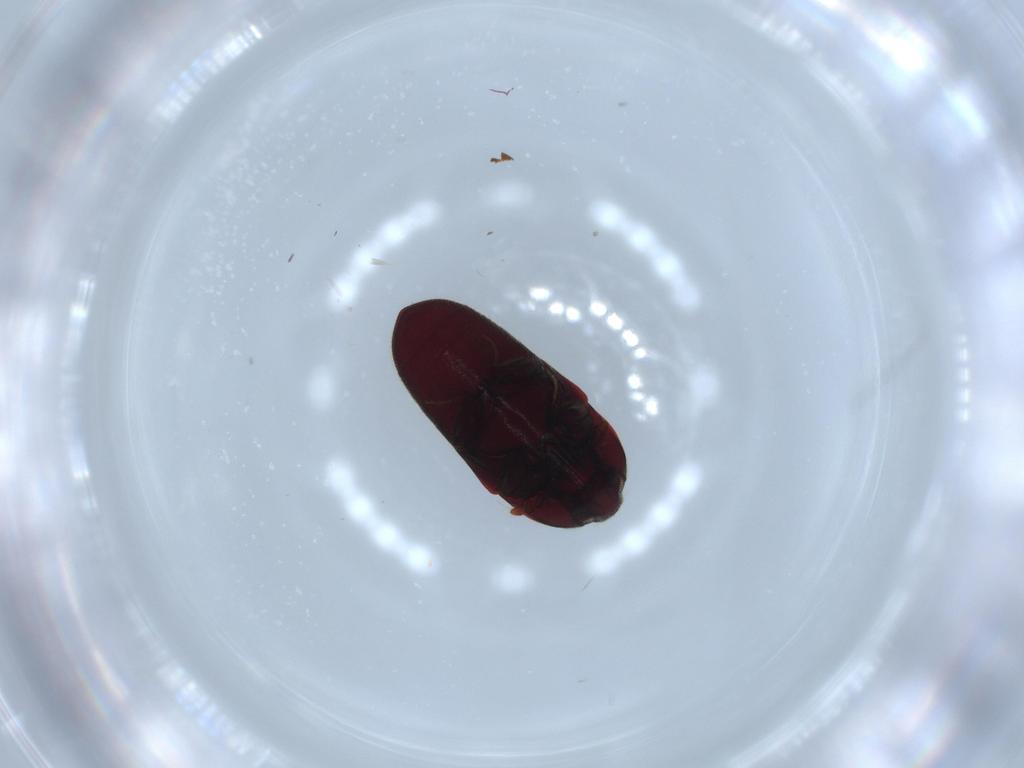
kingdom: Animalia
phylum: Arthropoda
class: Insecta
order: Coleoptera
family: Throscidae
